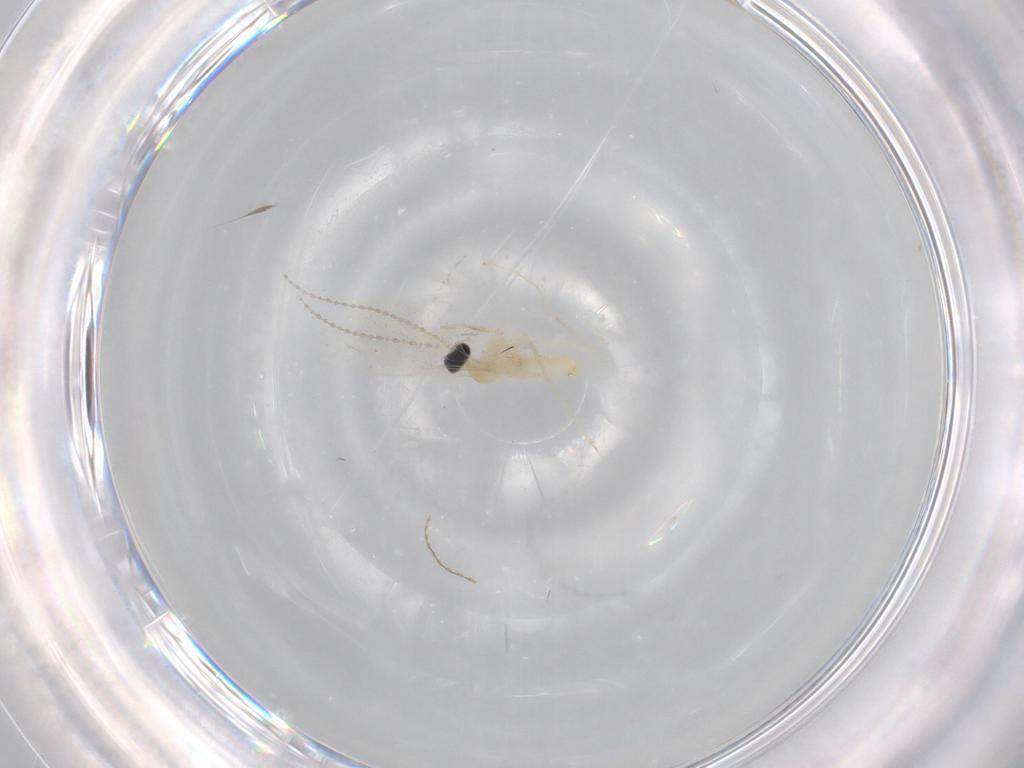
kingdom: Animalia
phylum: Arthropoda
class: Insecta
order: Diptera
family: Cecidomyiidae
